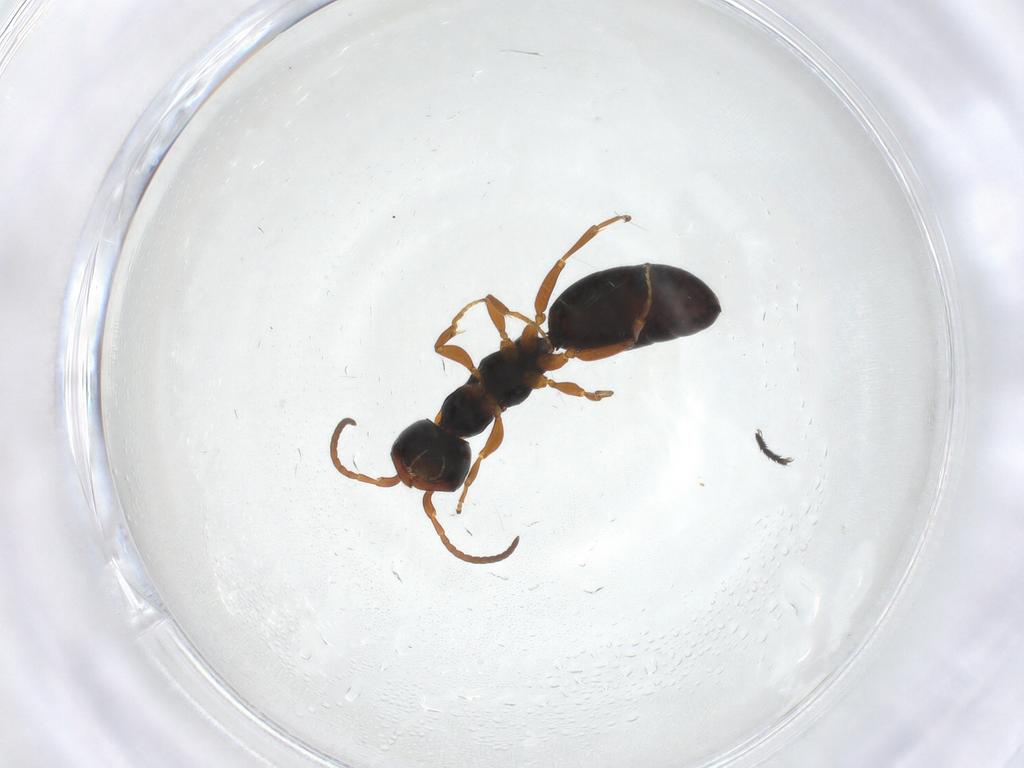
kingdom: Animalia
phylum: Arthropoda
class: Insecta
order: Hymenoptera
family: Bethylidae
